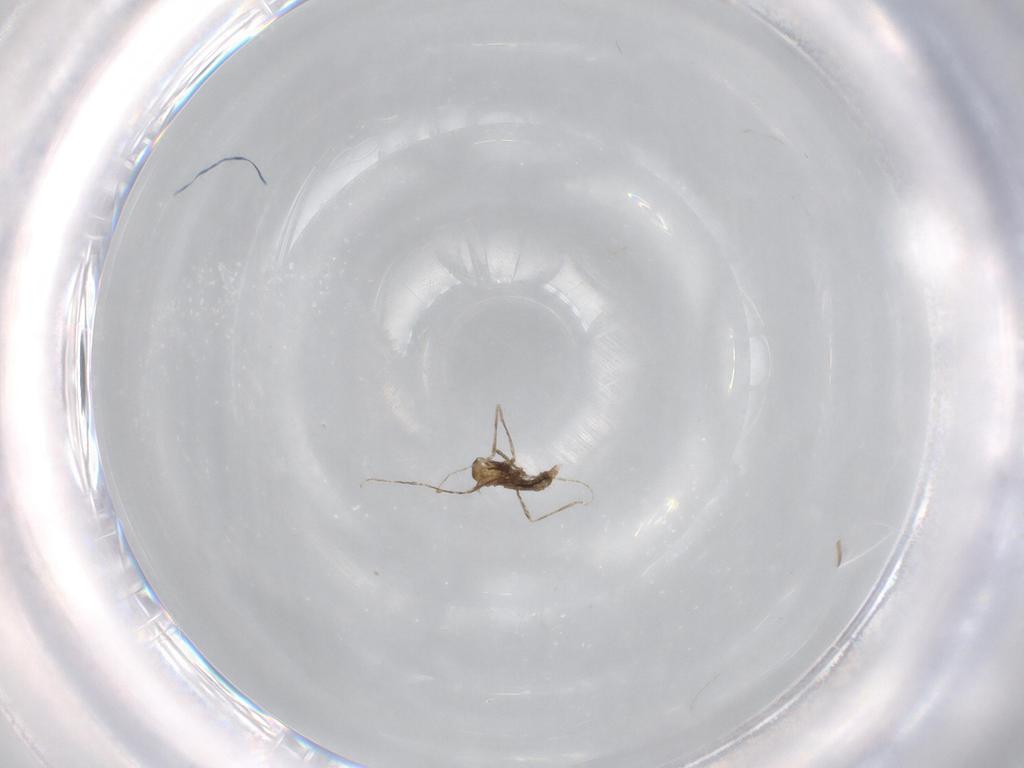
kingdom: Animalia
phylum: Arthropoda
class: Insecta
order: Diptera
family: Cecidomyiidae
